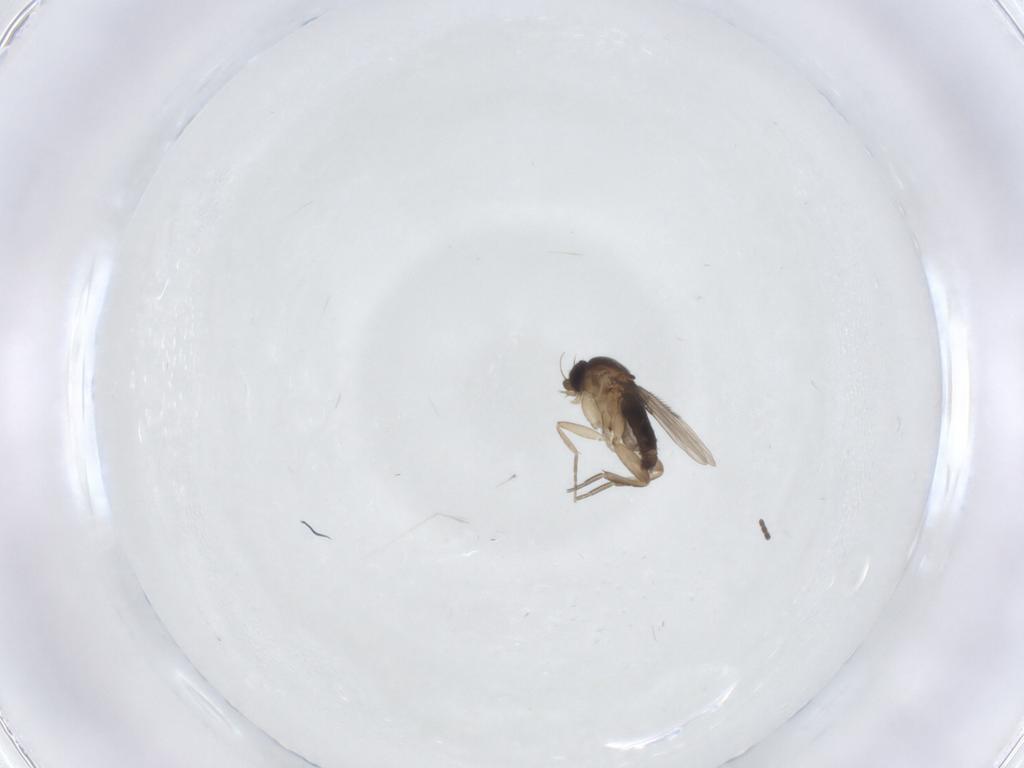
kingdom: Animalia
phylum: Arthropoda
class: Insecta
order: Diptera
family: Phoridae
